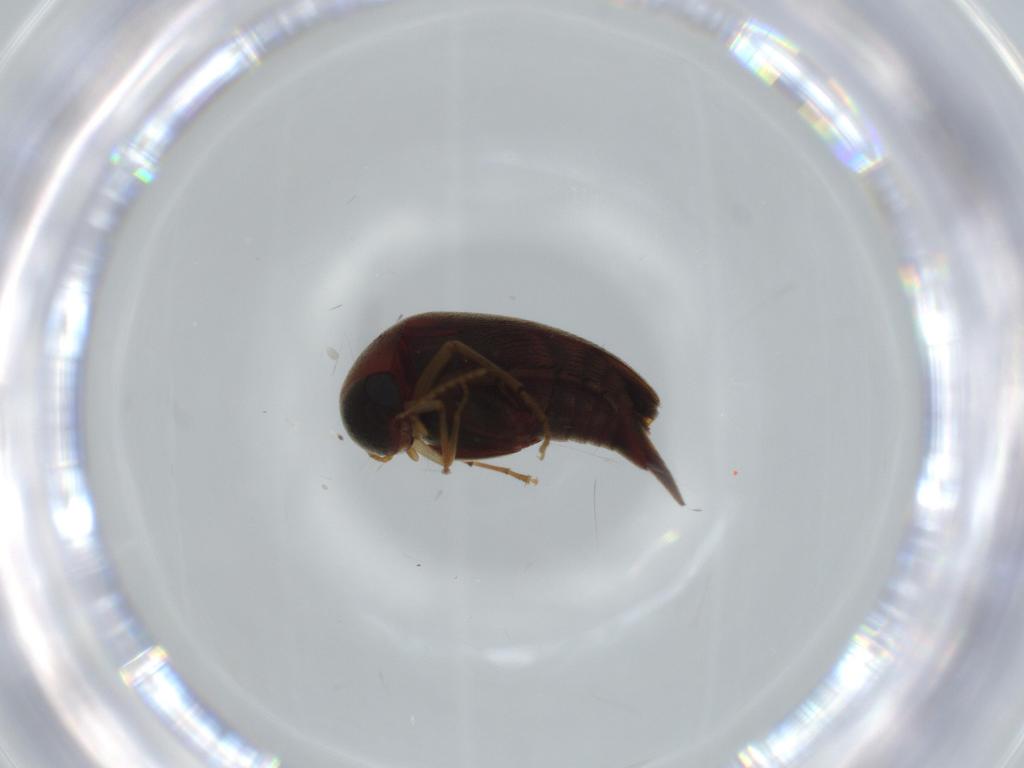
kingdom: Animalia
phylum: Arthropoda
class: Insecta
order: Coleoptera
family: Mordellidae
